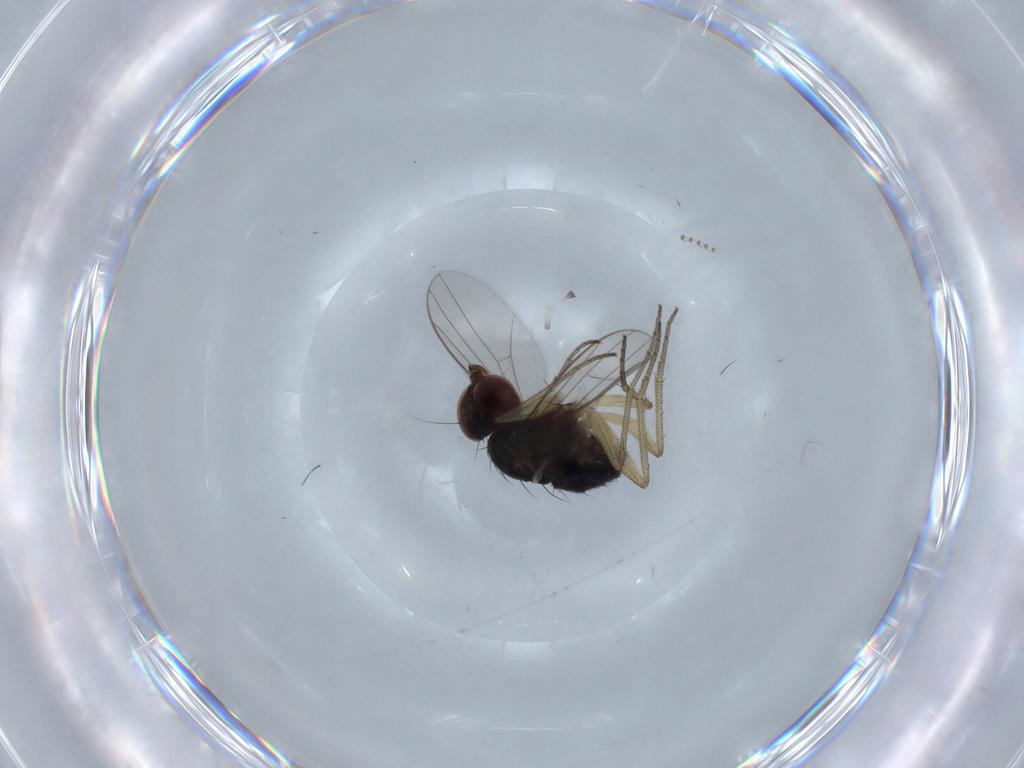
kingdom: Animalia
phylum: Arthropoda
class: Insecta
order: Diptera
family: Dolichopodidae
